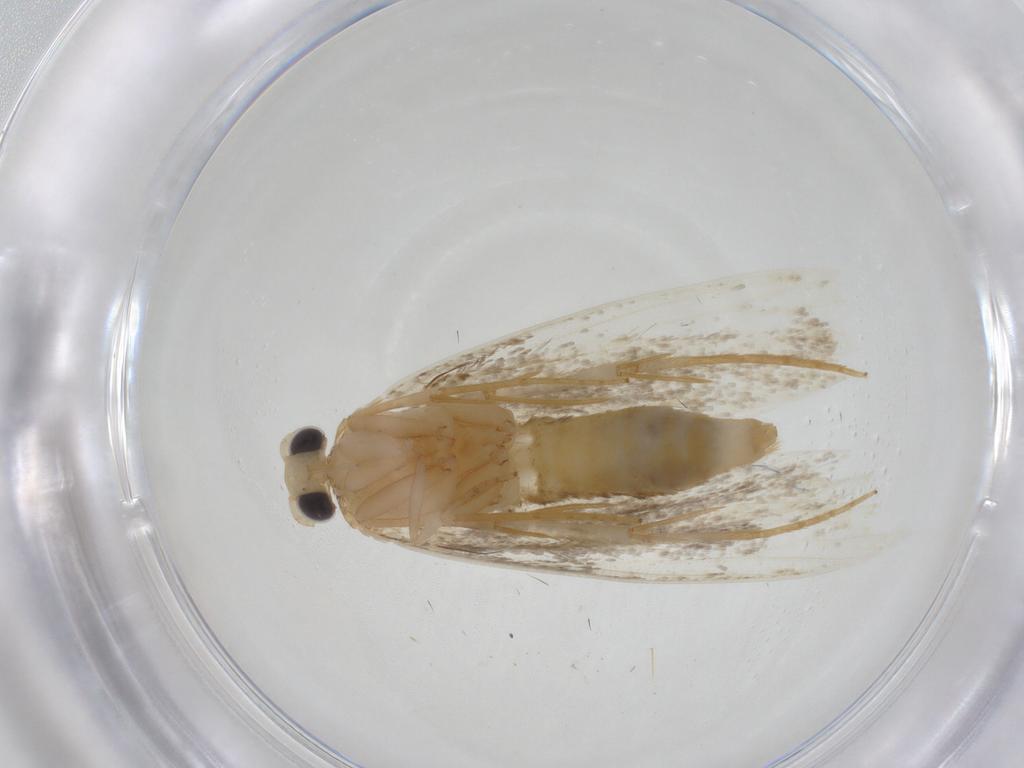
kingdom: Animalia
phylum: Arthropoda
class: Insecta
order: Lepidoptera
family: Tineidae
